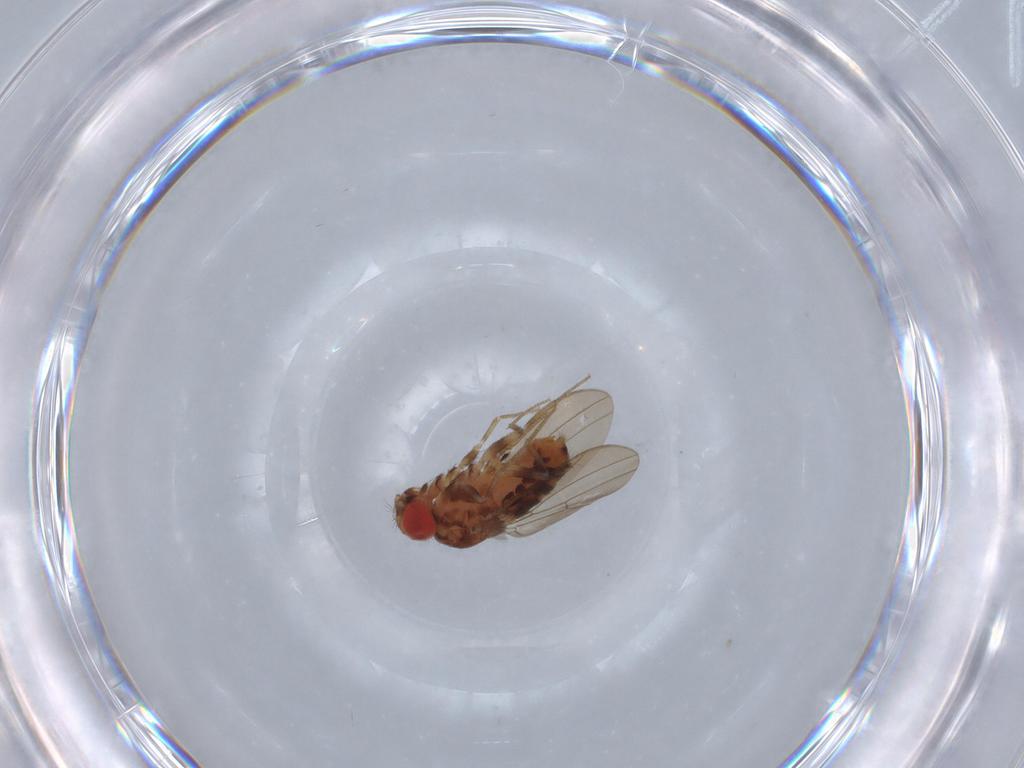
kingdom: Animalia
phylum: Arthropoda
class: Insecta
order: Diptera
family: Drosophilidae
